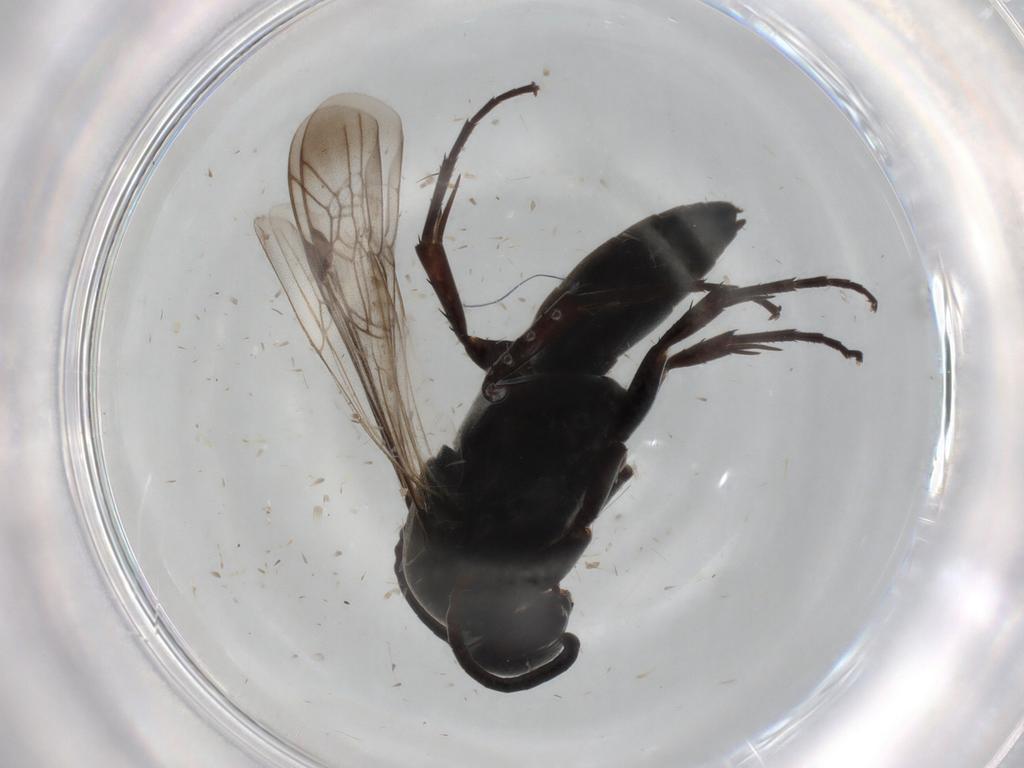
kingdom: Animalia
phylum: Arthropoda
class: Insecta
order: Hymenoptera
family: Pompilidae
